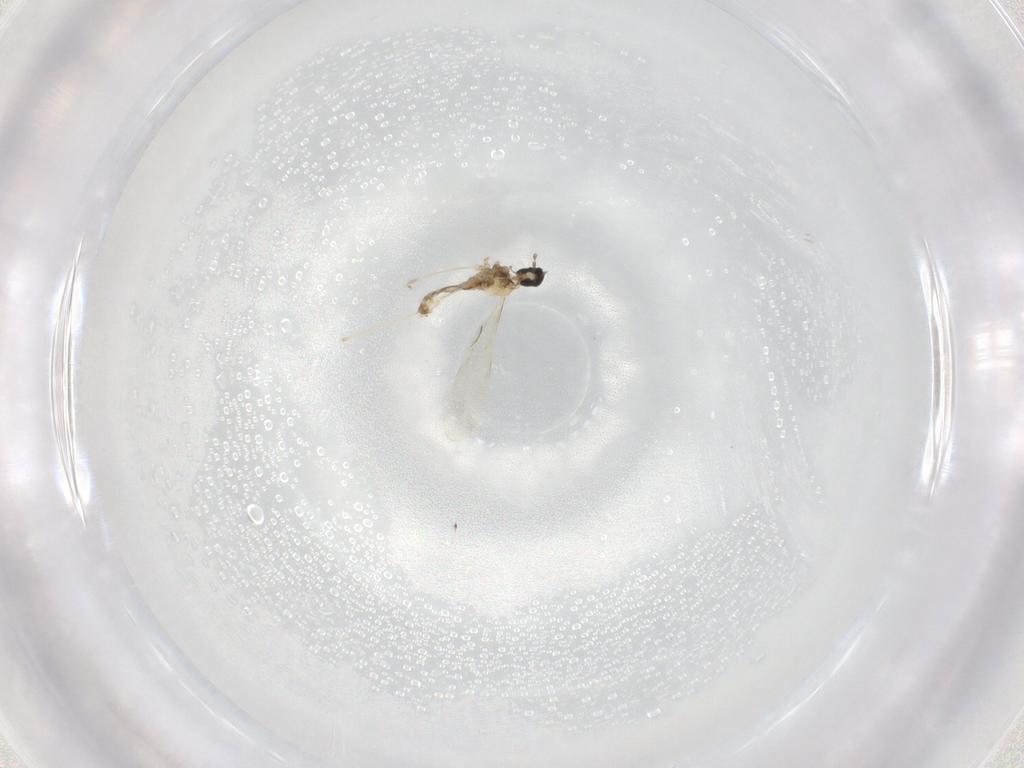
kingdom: Animalia
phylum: Arthropoda
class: Insecta
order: Diptera
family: Cecidomyiidae
